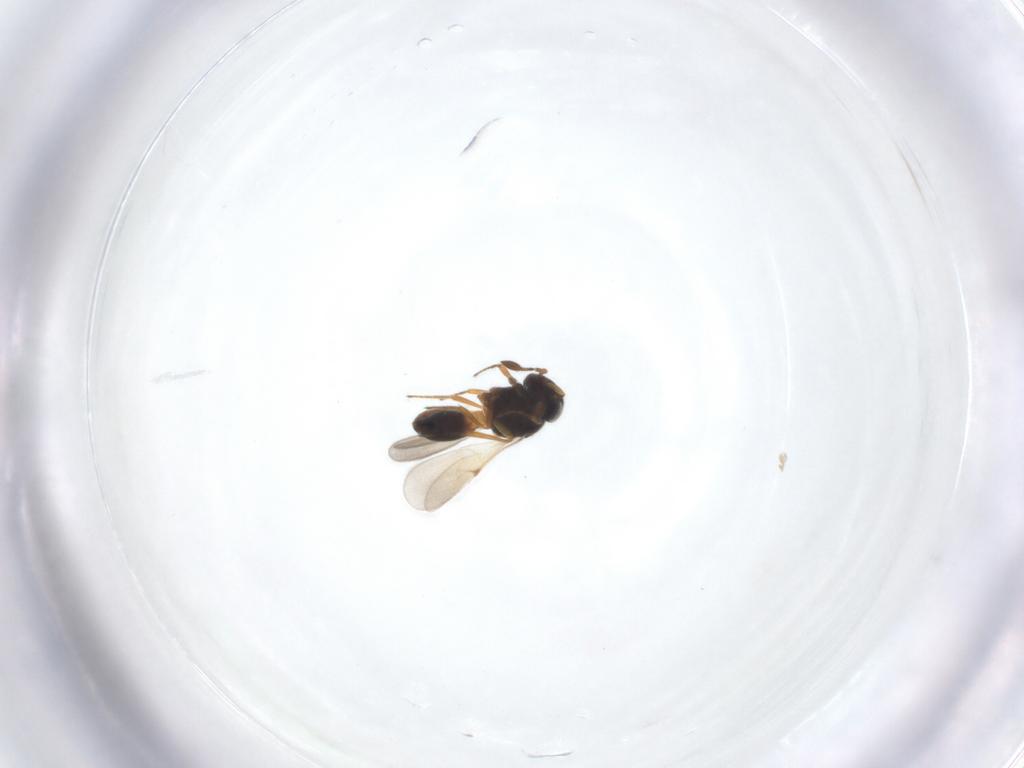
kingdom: Animalia
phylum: Arthropoda
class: Insecta
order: Hymenoptera
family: Scelionidae
